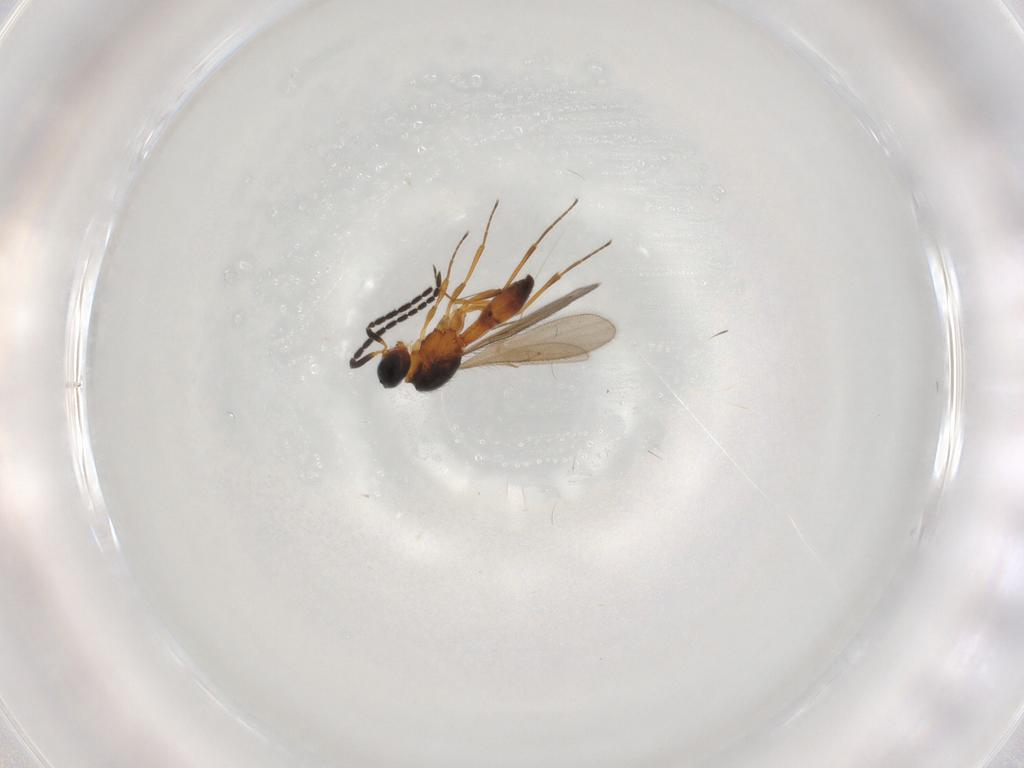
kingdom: Animalia
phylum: Arthropoda
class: Insecta
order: Hymenoptera
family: Scelionidae
